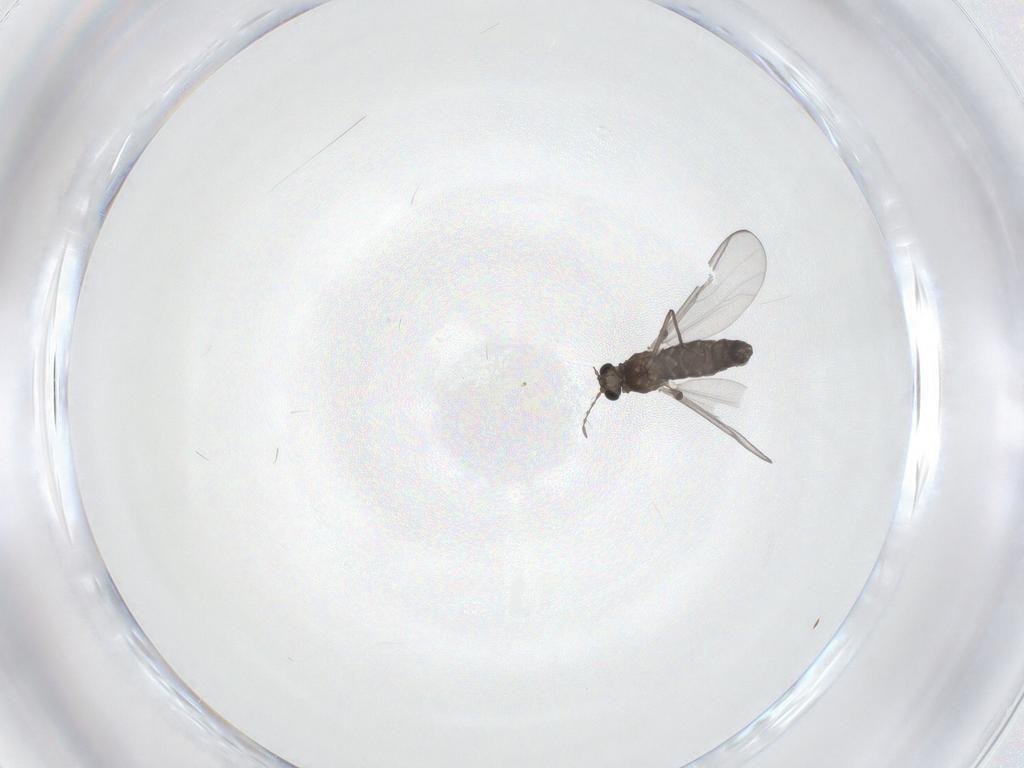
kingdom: Animalia
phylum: Arthropoda
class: Insecta
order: Diptera
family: Chironomidae
